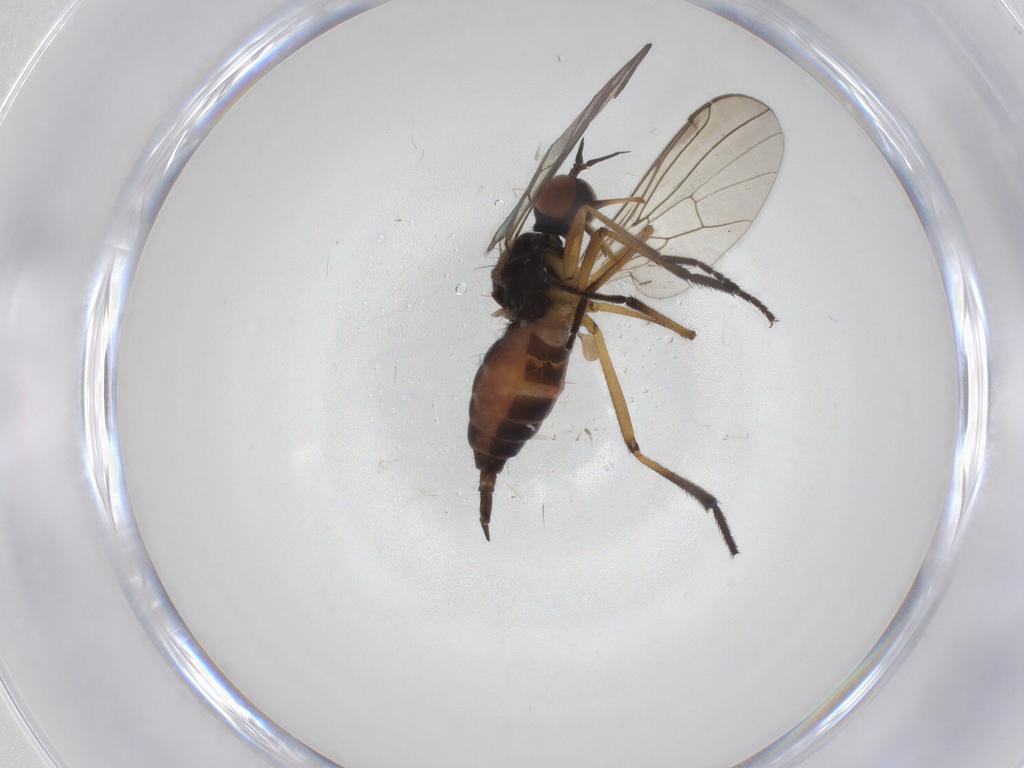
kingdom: Animalia
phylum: Arthropoda
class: Insecta
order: Diptera
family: Empididae
